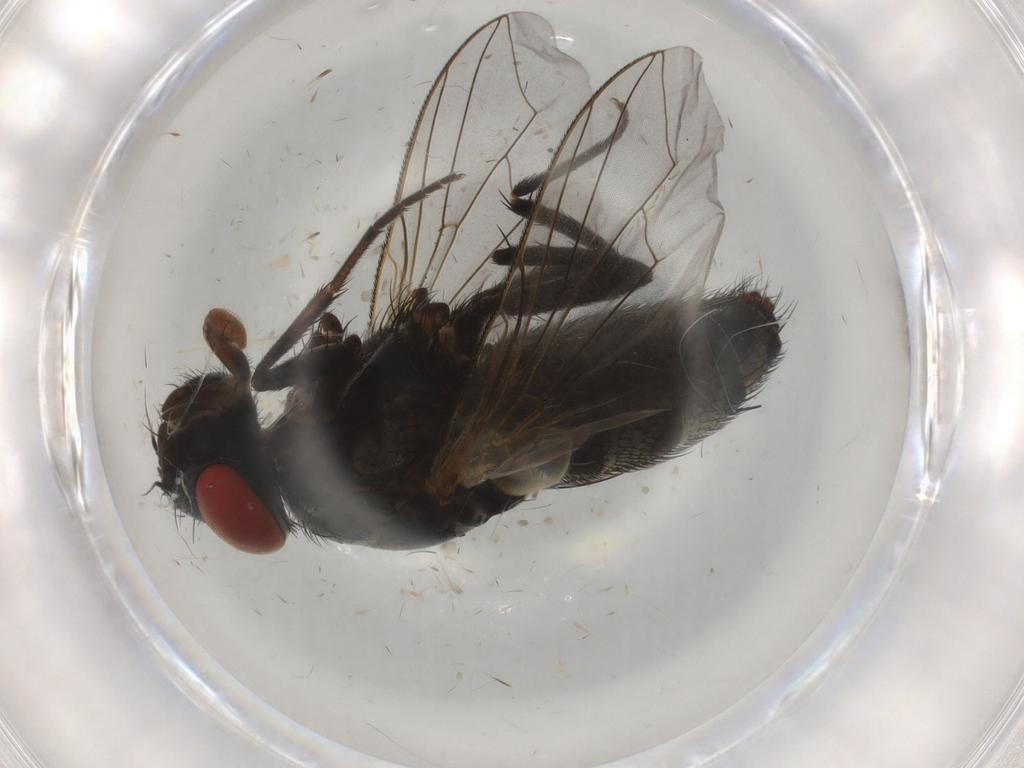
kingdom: Animalia
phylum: Arthropoda
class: Insecta
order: Diptera
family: Sarcophagidae
